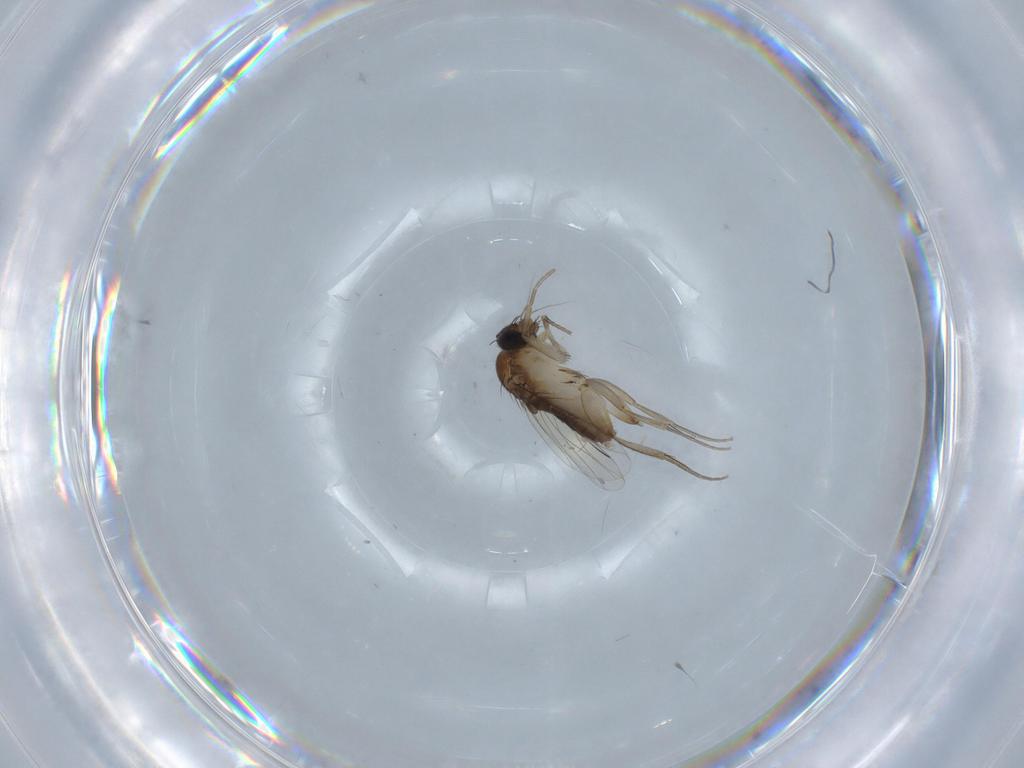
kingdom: Animalia
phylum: Arthropoda
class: Insecta
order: Diptera
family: Phoridae
